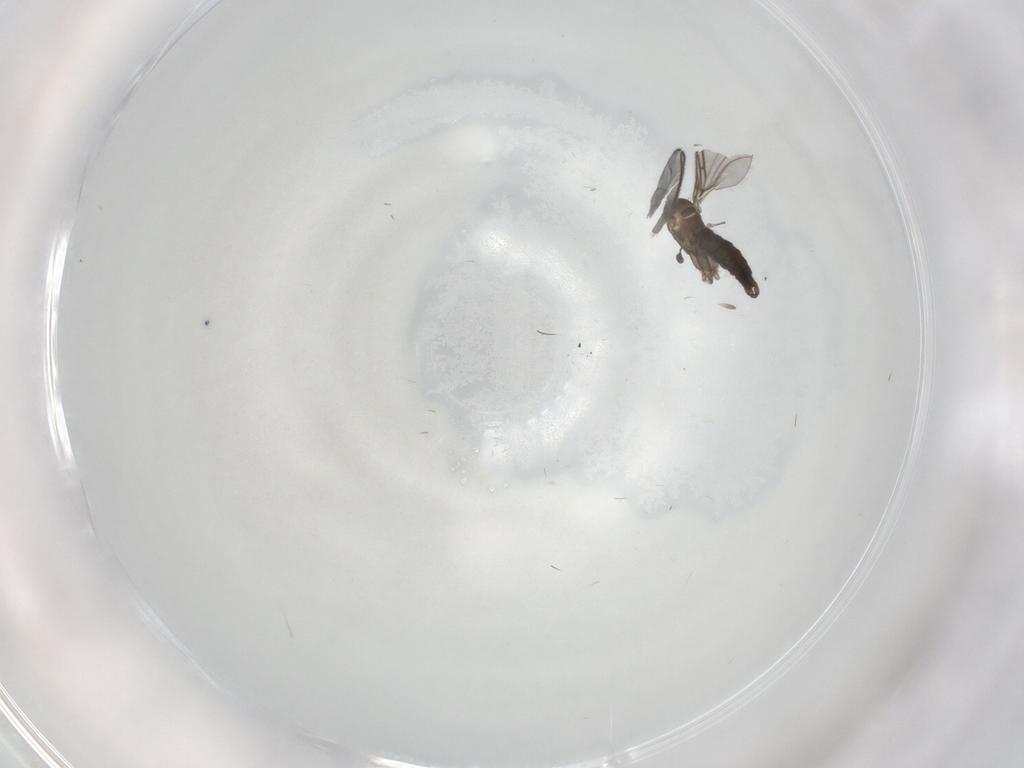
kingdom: Animalia
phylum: Arthropoda
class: Insecta
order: Diptera
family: Sciaridae
